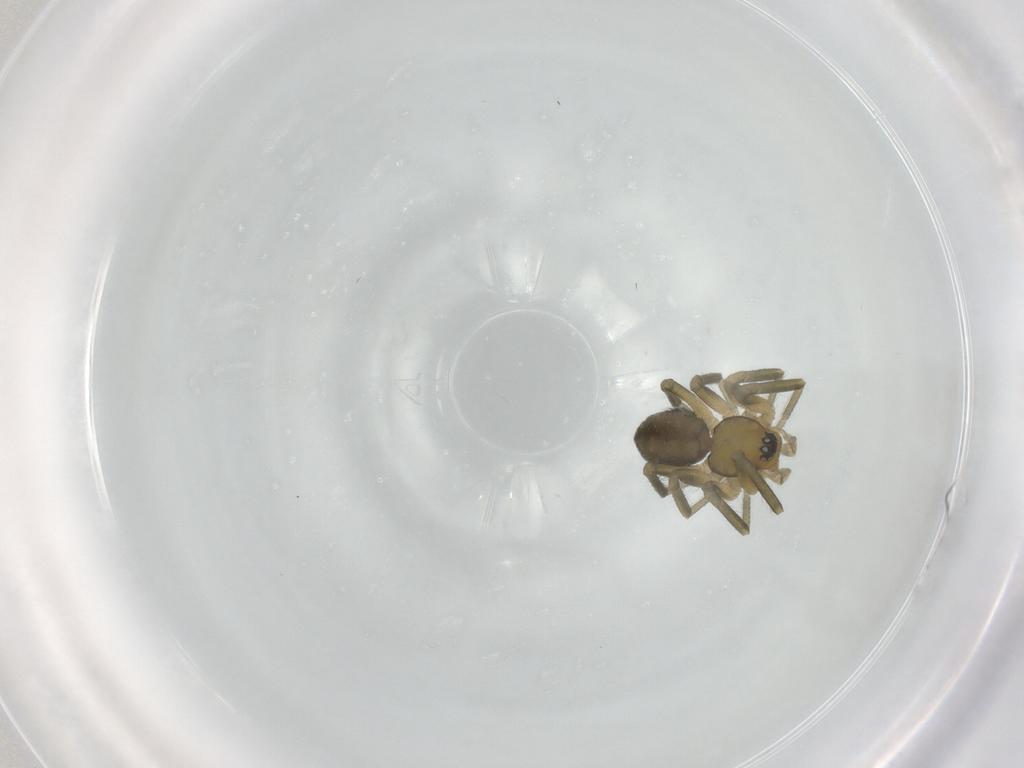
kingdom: Animalia
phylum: Arthropoda
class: Arachnida
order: Araneae
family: Linyphiidae
